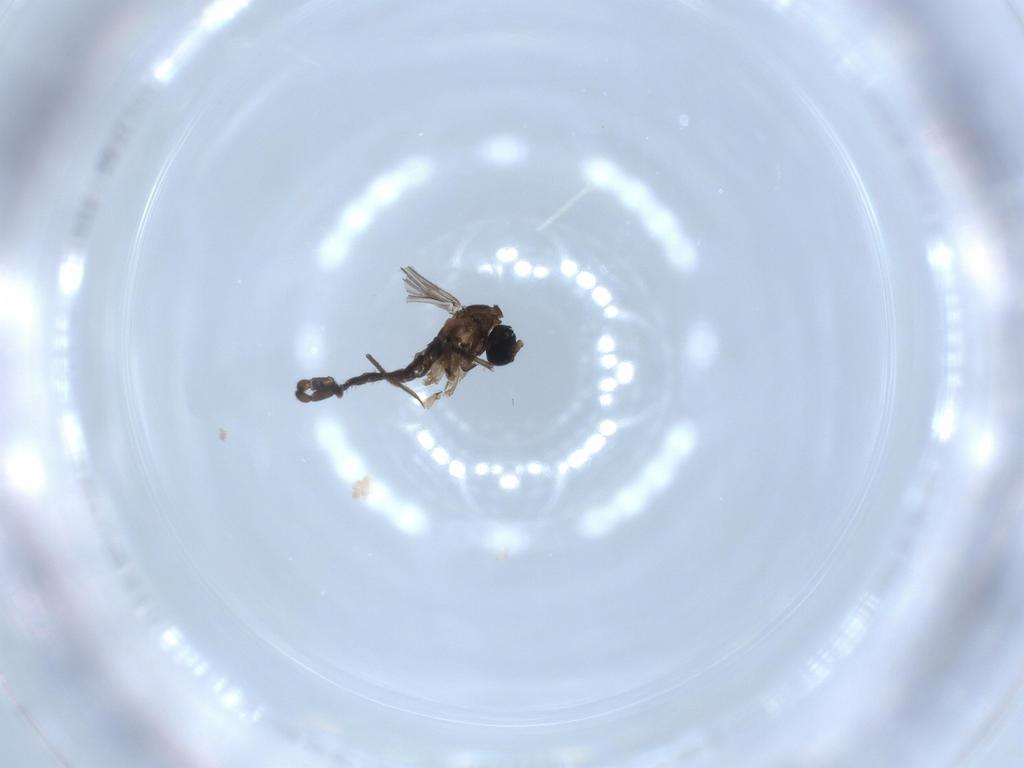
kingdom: Animalia
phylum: Arthropoda
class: Insecta
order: Diptera
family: Sciaridae
